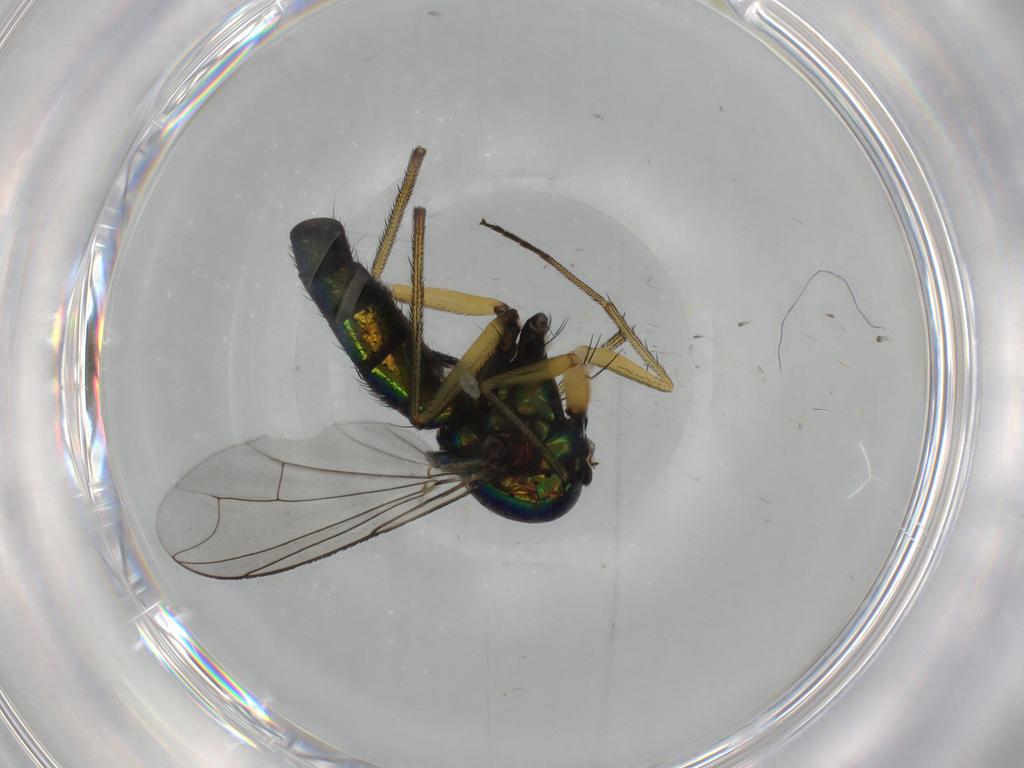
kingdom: Animalia
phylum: Arthropoda
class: Insecta
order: Diptera
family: Dolichopodidae
